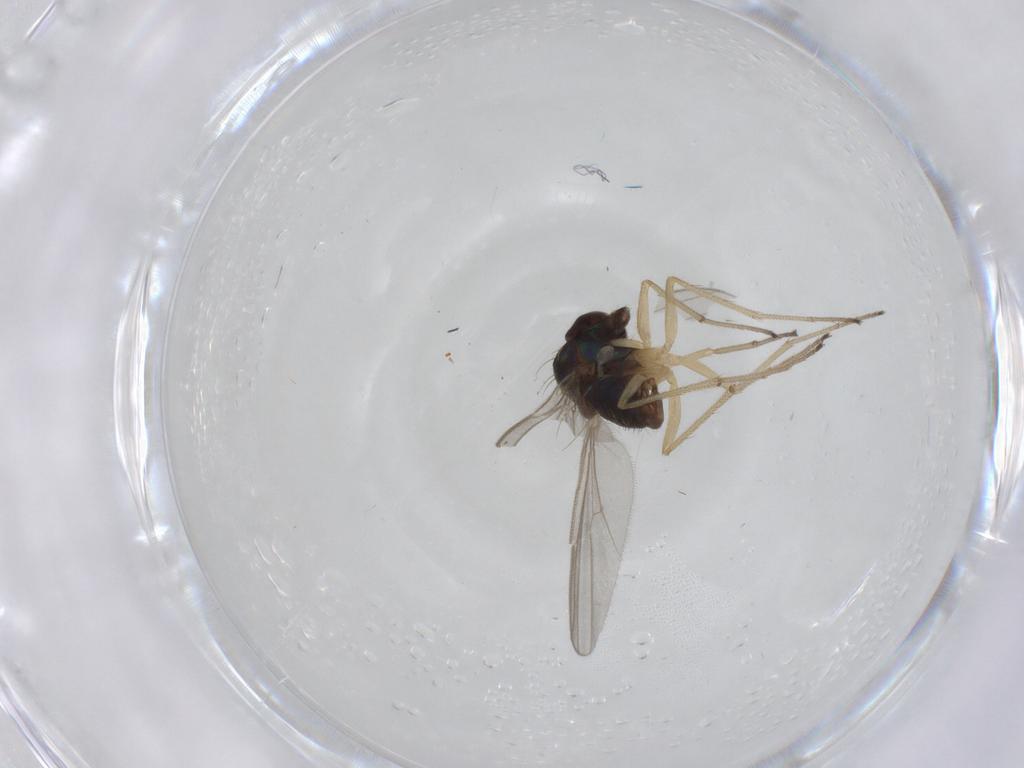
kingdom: Animalia
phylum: Arthropoda
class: Insecta
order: Diptera
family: Dolichopodidae
